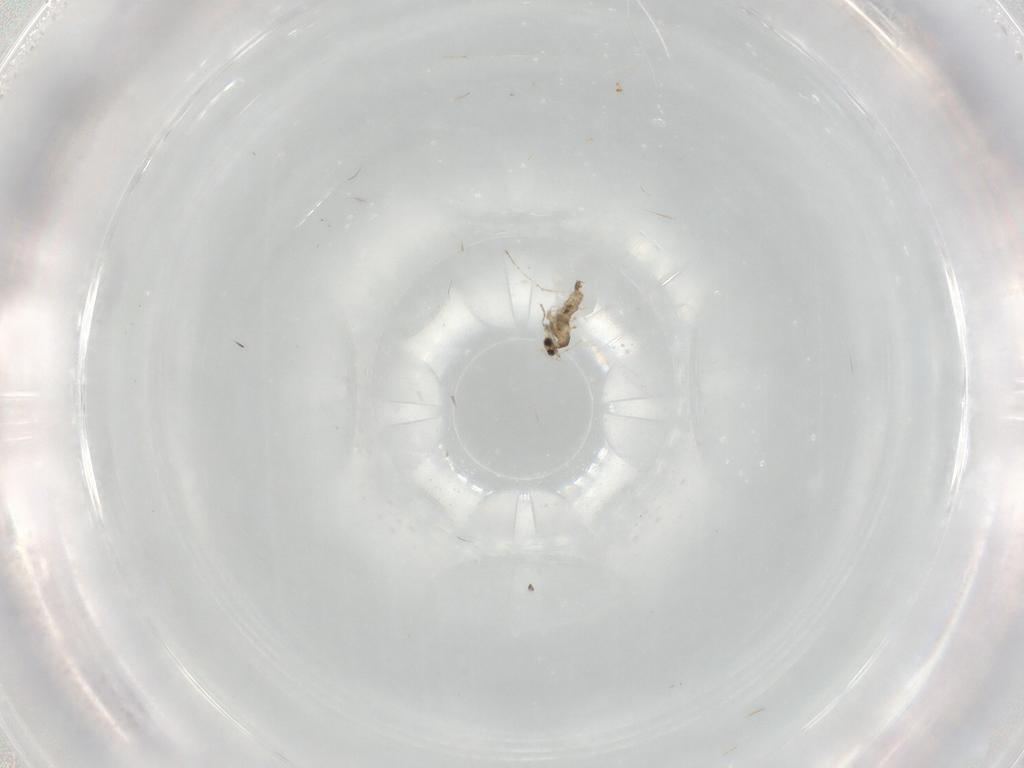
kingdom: Animalia
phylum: Arthropoda
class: Insecta
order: Diptera
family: Cecidomyiidae
